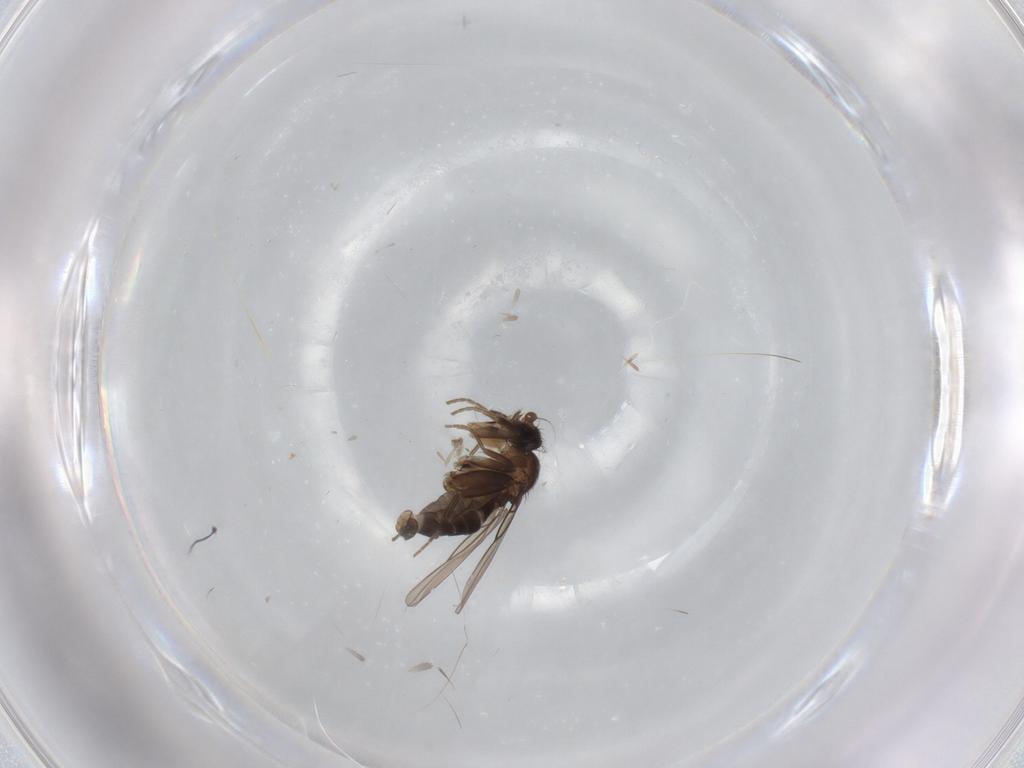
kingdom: Animalia
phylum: Arthropoda
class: Insecta
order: Diptera
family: Phoridae
